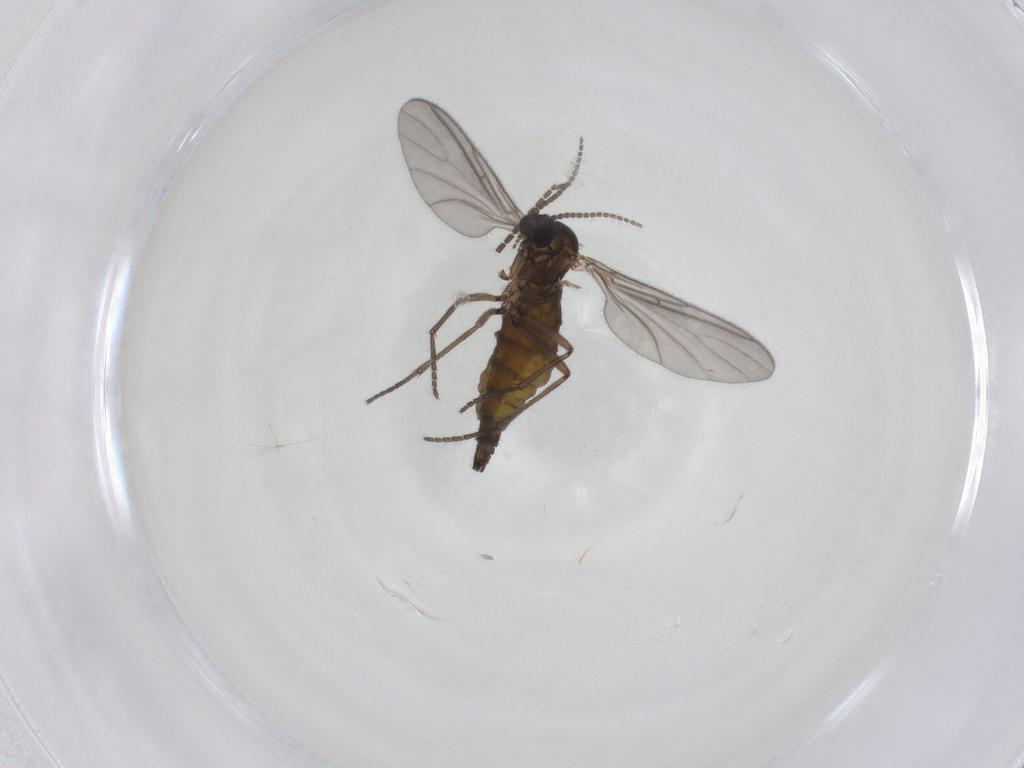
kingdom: Animalia
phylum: Arthropoda
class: Insecta
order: Diptera
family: Sciaridae
